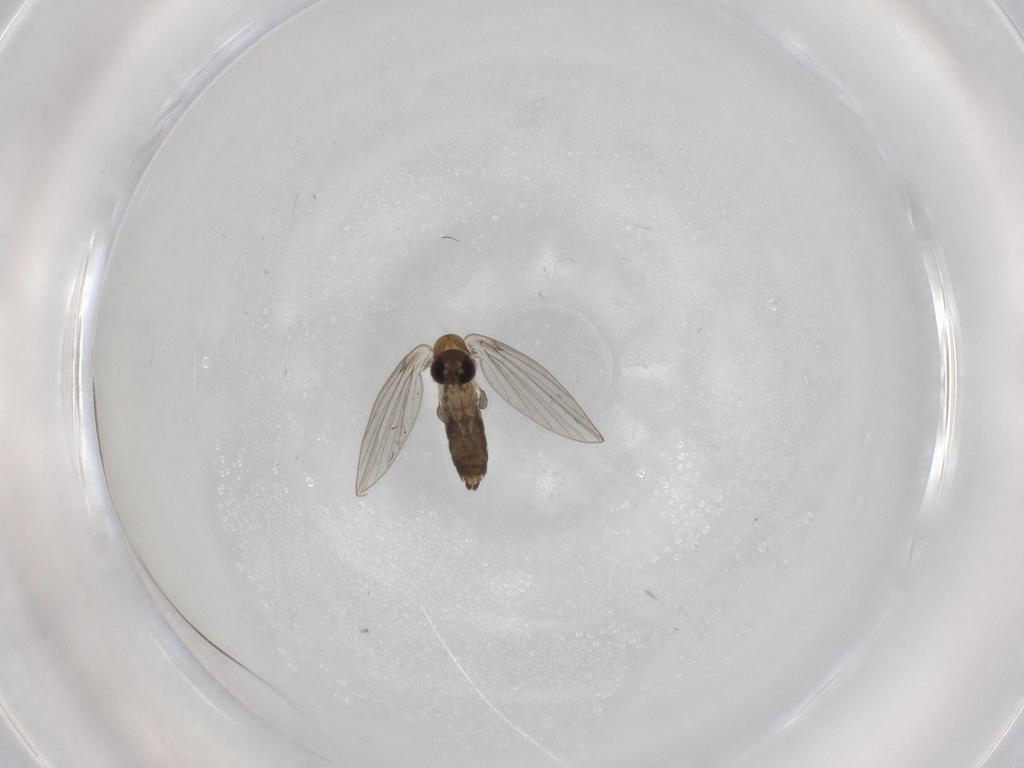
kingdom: Animalia
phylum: Arthropoda
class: Insecta
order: Diptera
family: Psychodidae
